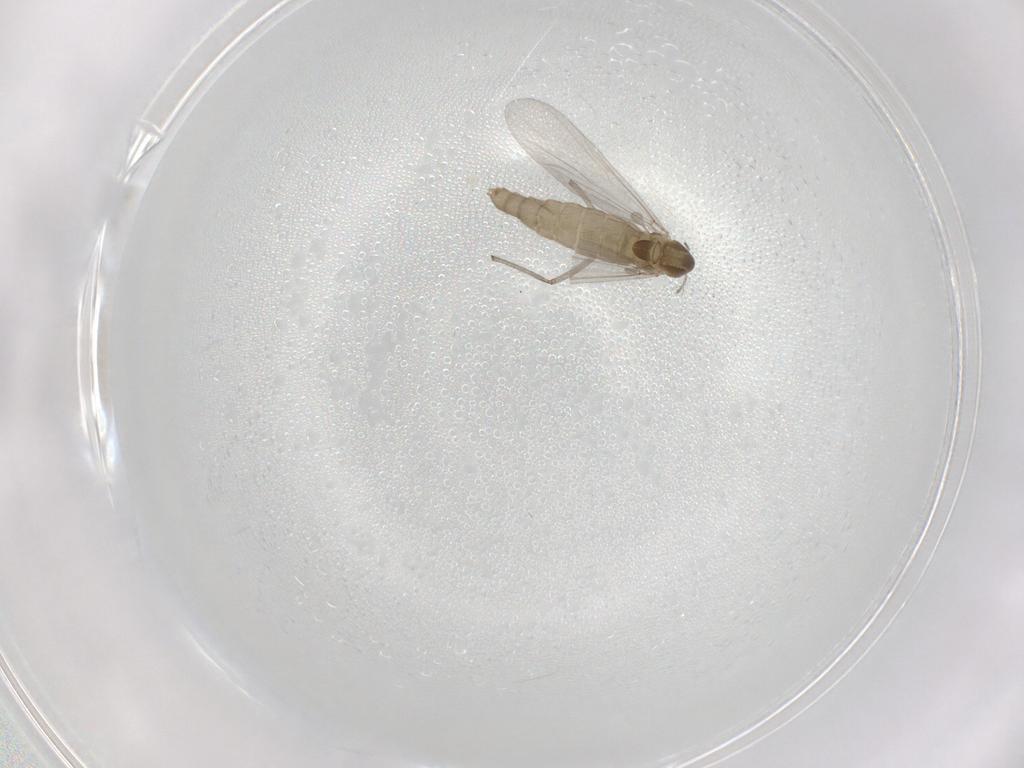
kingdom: Animalia
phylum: Arthropoda
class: Insecta
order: Diptera
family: Chironomidae
